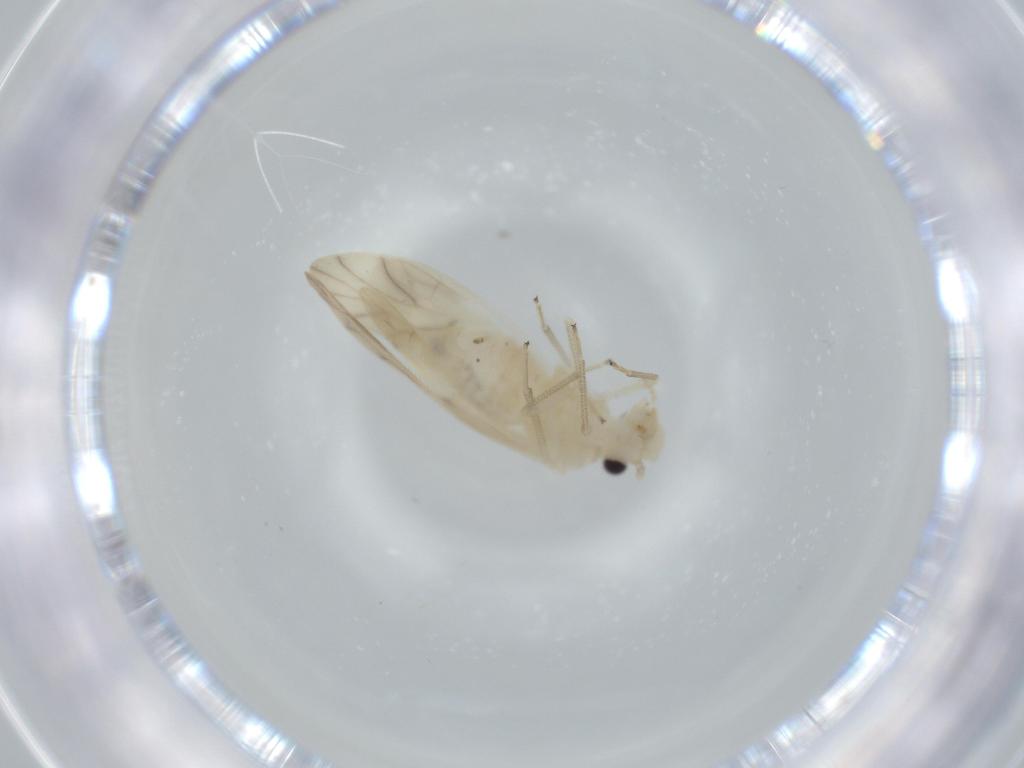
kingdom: Animalia
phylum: Arthropoda
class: Insecta
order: Psocodea
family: Caeciliusidae
